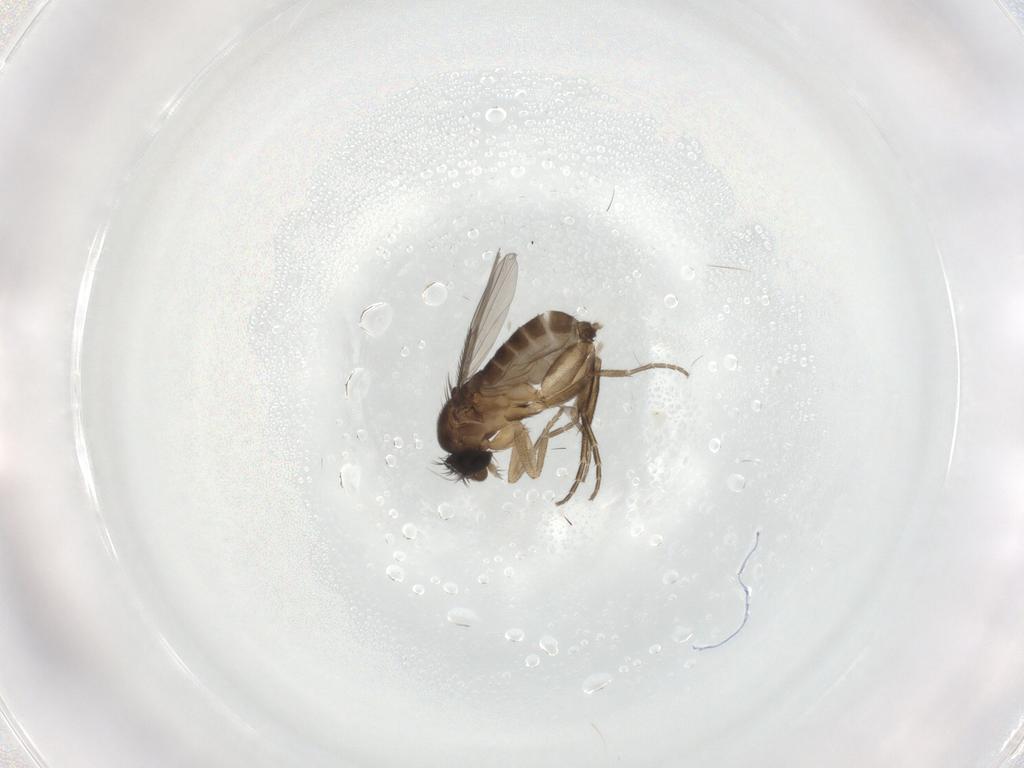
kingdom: Animalia
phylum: Arthropoda
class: Insecta
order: Diptera
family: Phoridae
